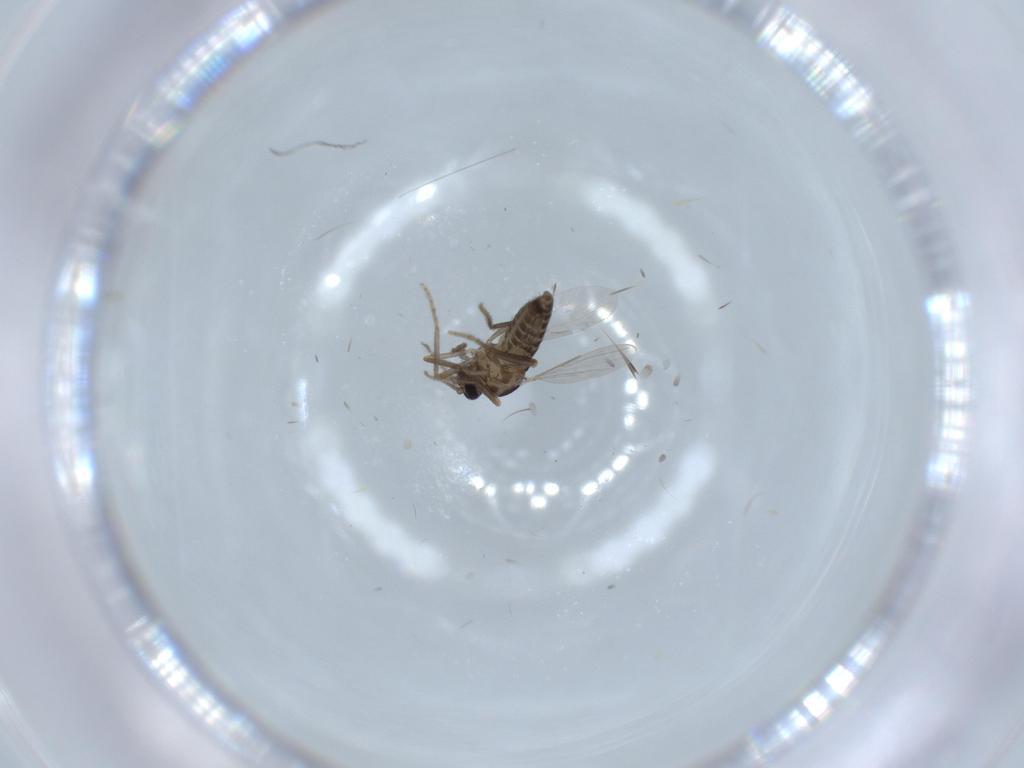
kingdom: Animalia
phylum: Arthropoda
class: Insecta
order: Diptera
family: Ceratopogonidae
